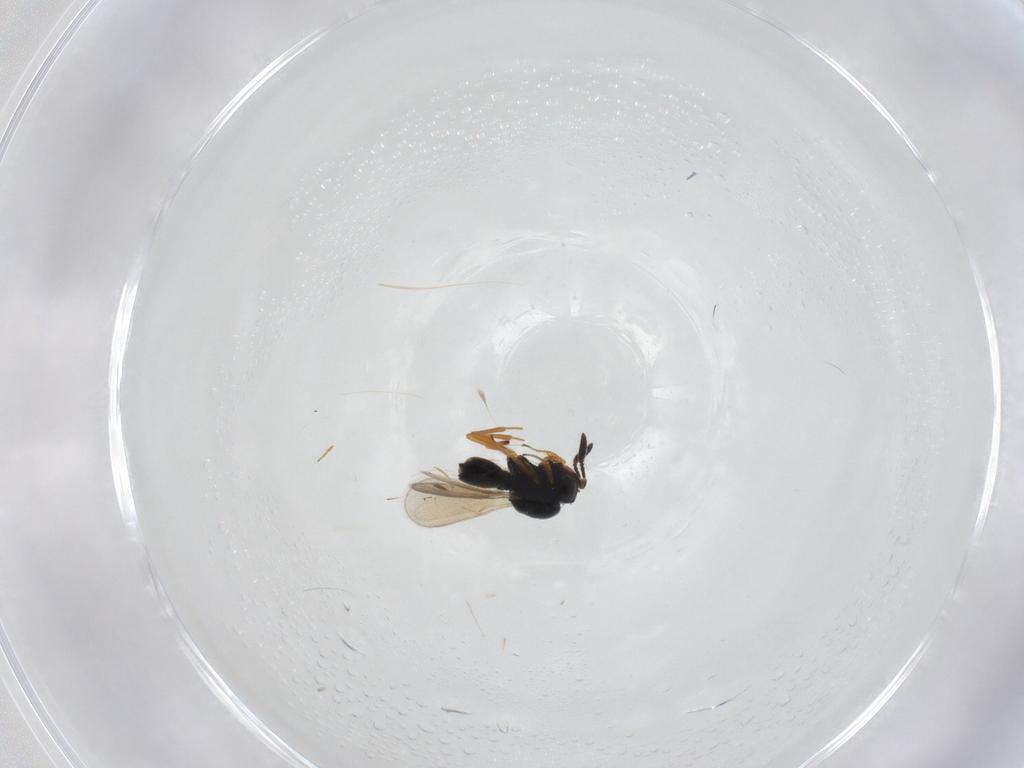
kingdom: Animalia
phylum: Arthropoda
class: Insecta
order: Hymenoptera
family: Scelionidae
